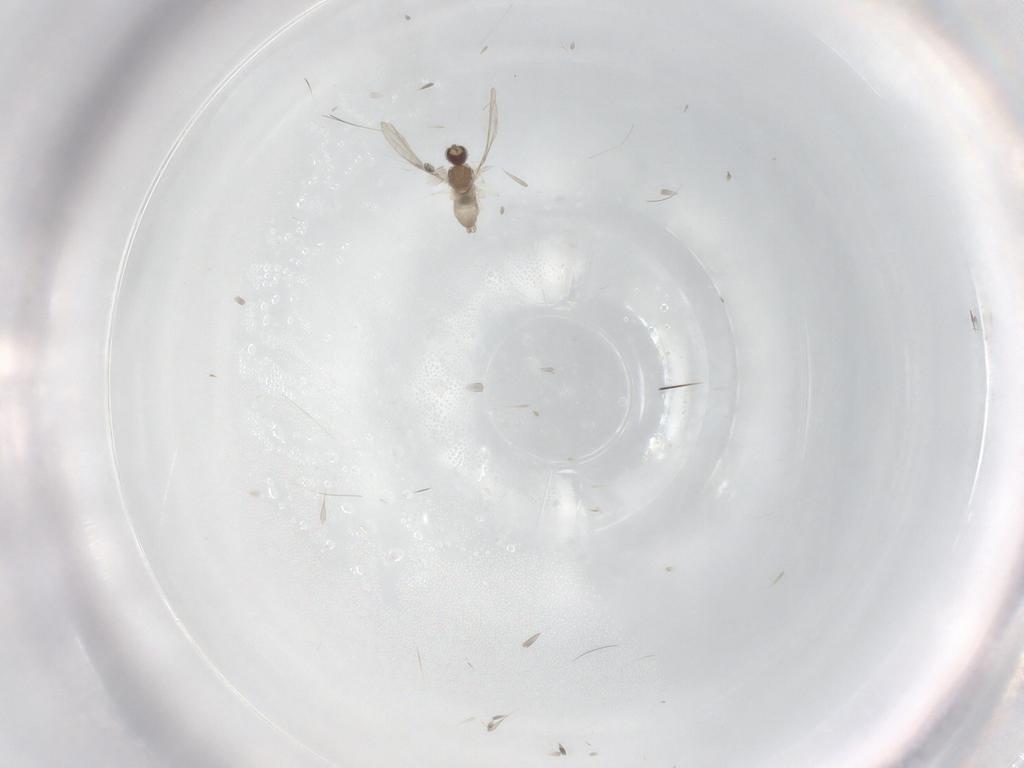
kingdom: Animalia
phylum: Arthropoda
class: Insecta
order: Diptera
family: Cecidomyiidae
